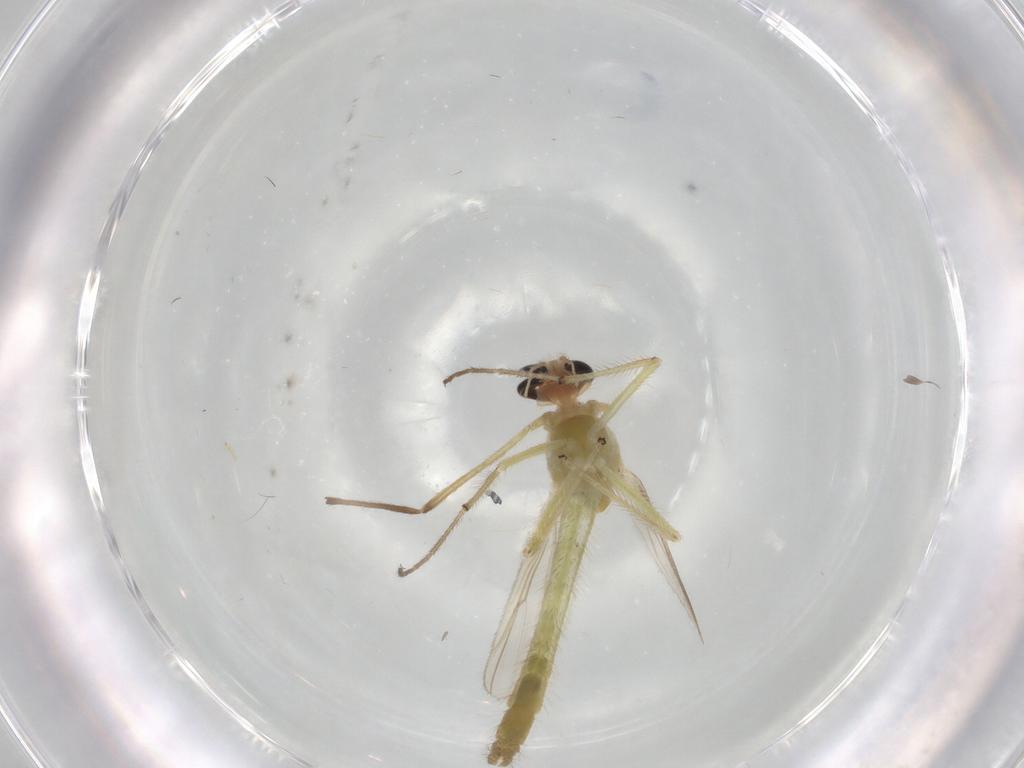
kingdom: Animalia
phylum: Arthropoda
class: Insecta
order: Diptera
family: Chironomidae
